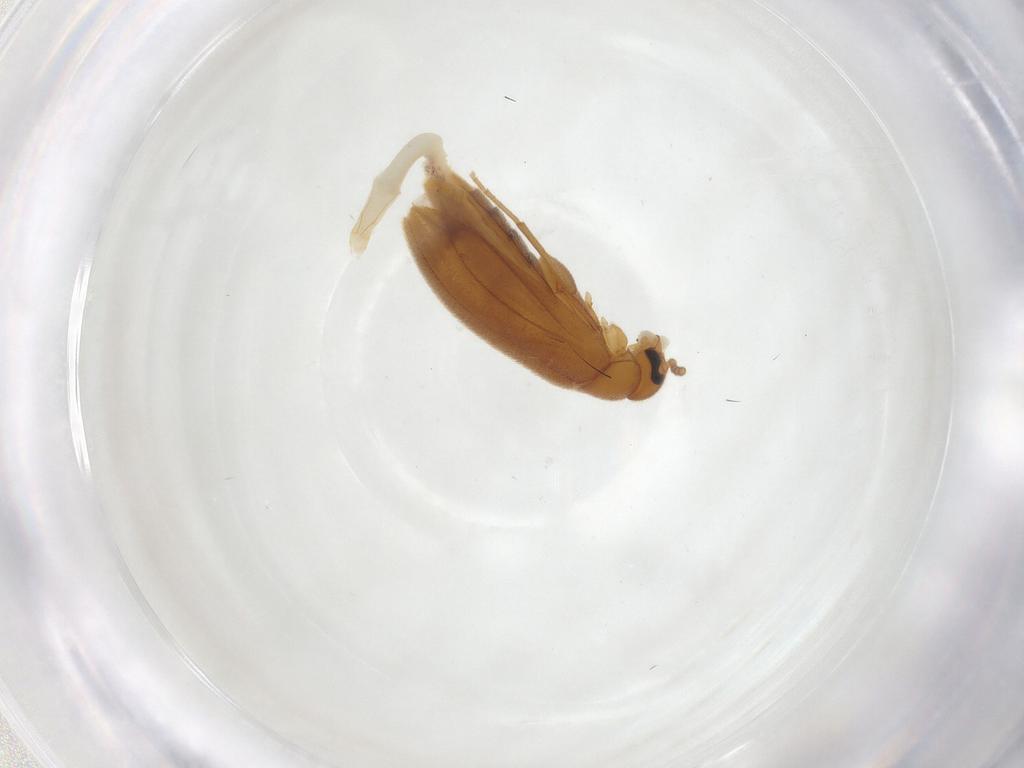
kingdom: Animalia
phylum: Arthropoda
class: Insecta
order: Coleoptera
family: Scraptiidae
